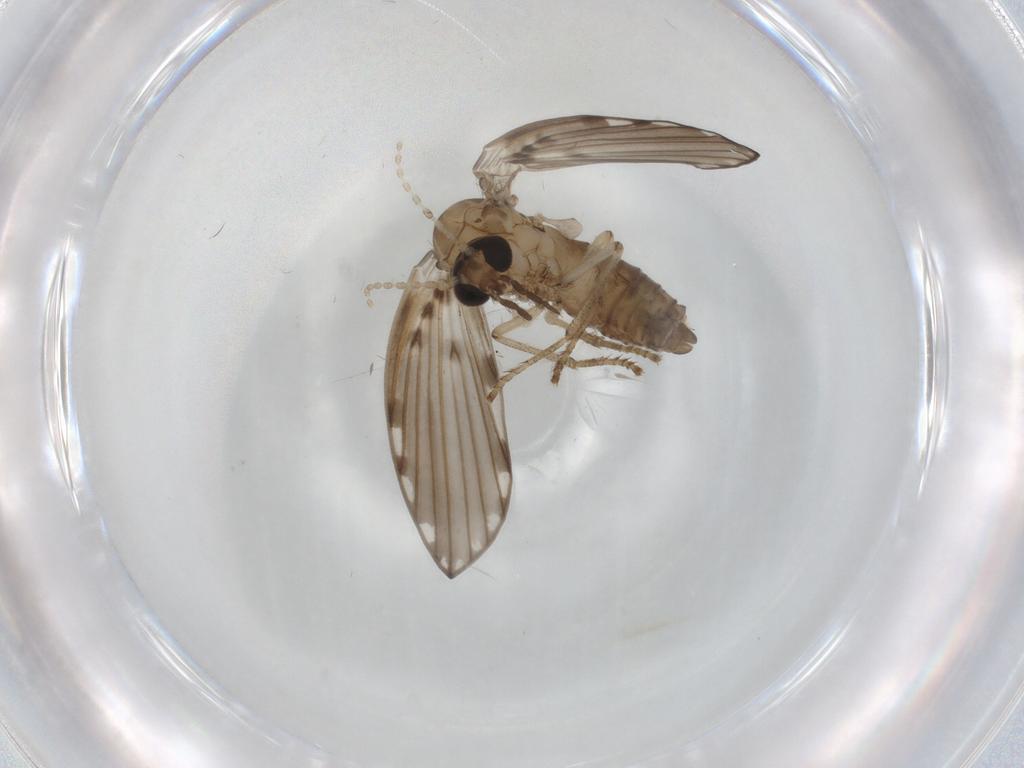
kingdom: Animalia
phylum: Arthropoda
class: Insecta
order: Diptera
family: Muscidae
